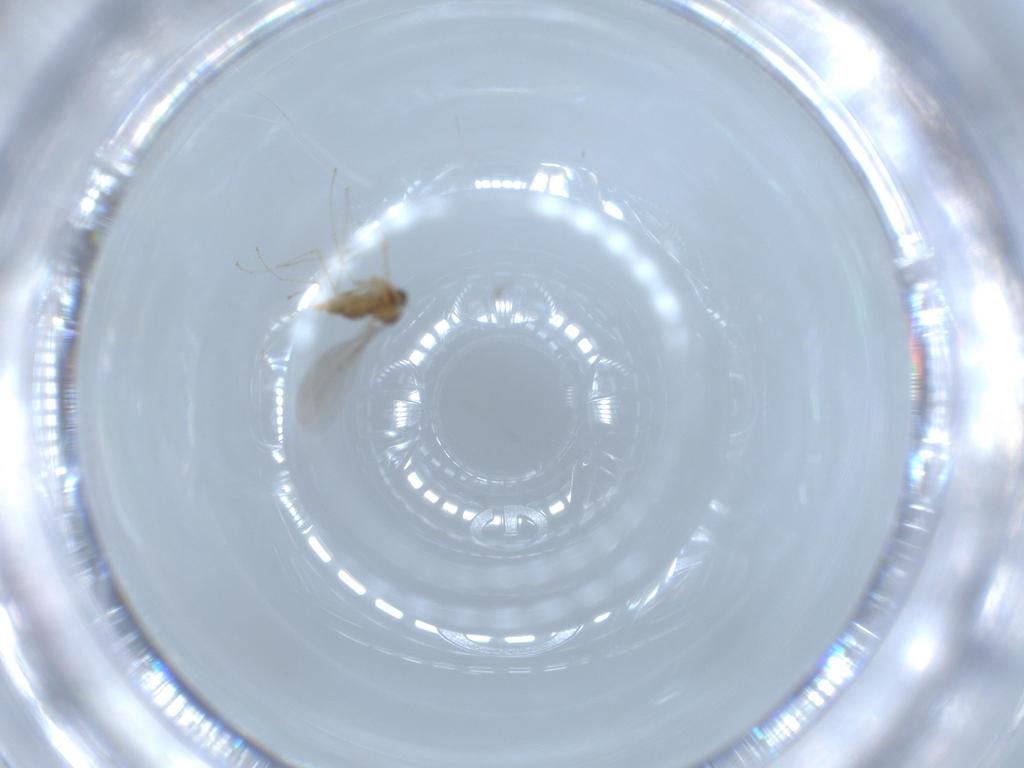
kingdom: Animalia
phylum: Arthropoda
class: Insecta
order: Diptera
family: Cecidomyiidae
